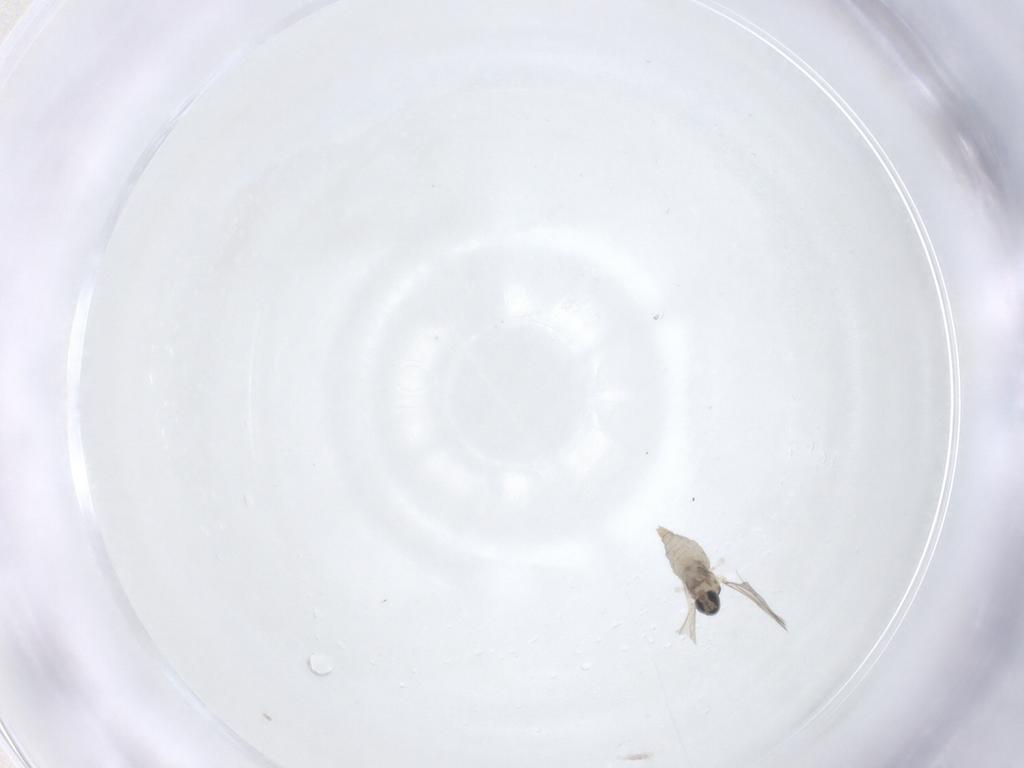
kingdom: Animalia
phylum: Arthropoda
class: Insecta
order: Diptera
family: Cecidomyiidae
